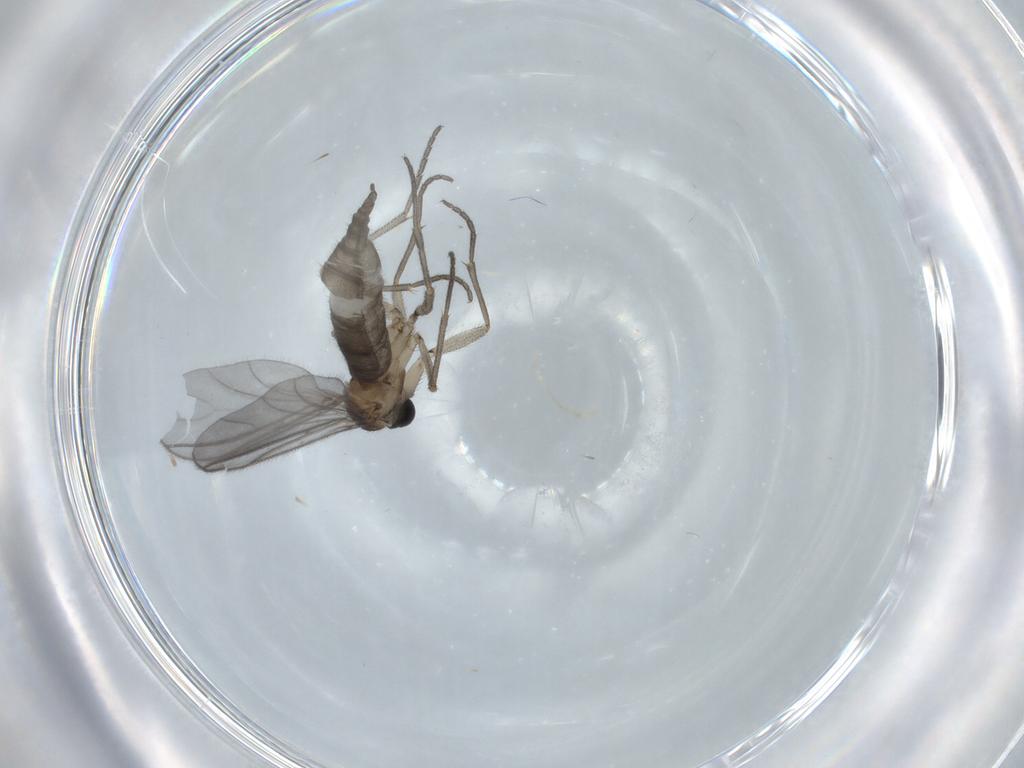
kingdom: Animalia
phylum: Arthropoda
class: Insecta
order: Diptera
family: Sciaridae
